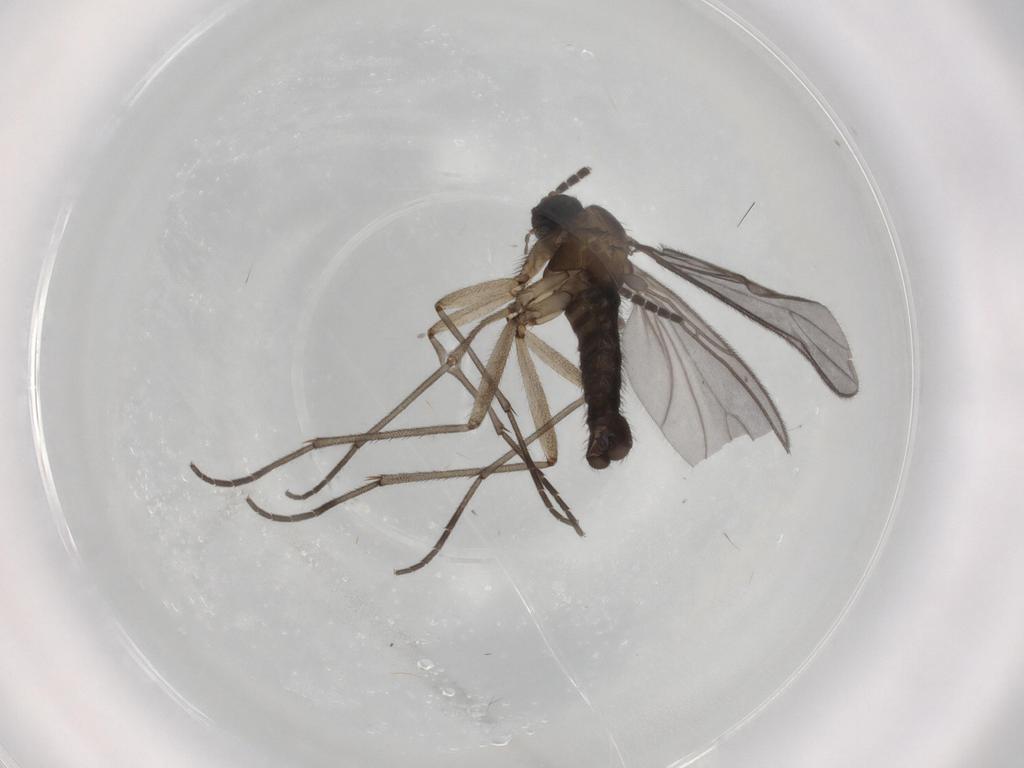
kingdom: Animalia
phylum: Arthropoda
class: Insecta
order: Diptera
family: Sciaridae
